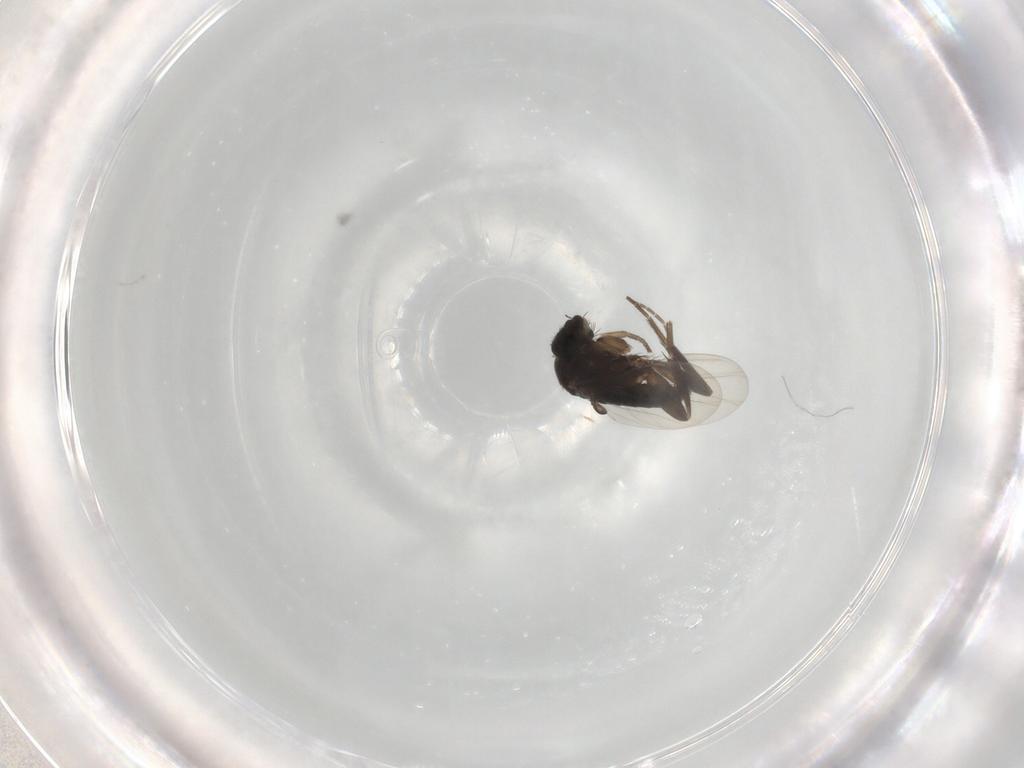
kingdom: Animalia
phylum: Arthropoda
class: Insecta
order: Diptera
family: Phoridae
